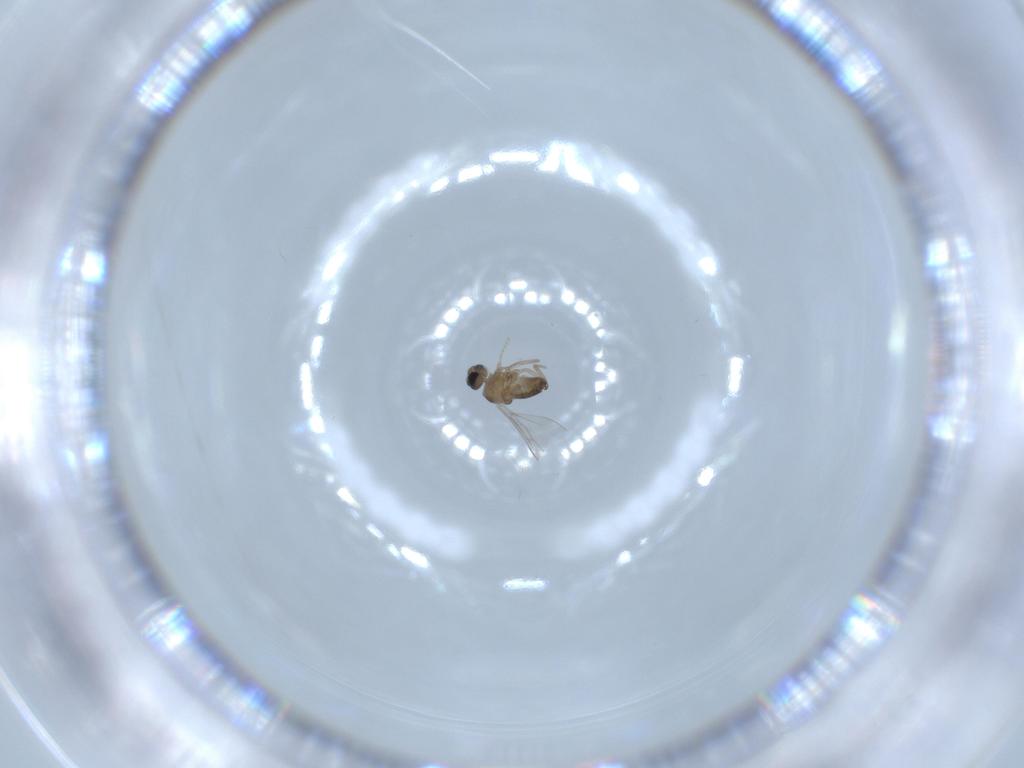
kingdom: Animalia
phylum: Arthropoda
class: Insecta
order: Diptera
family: Cecidomyiidae
